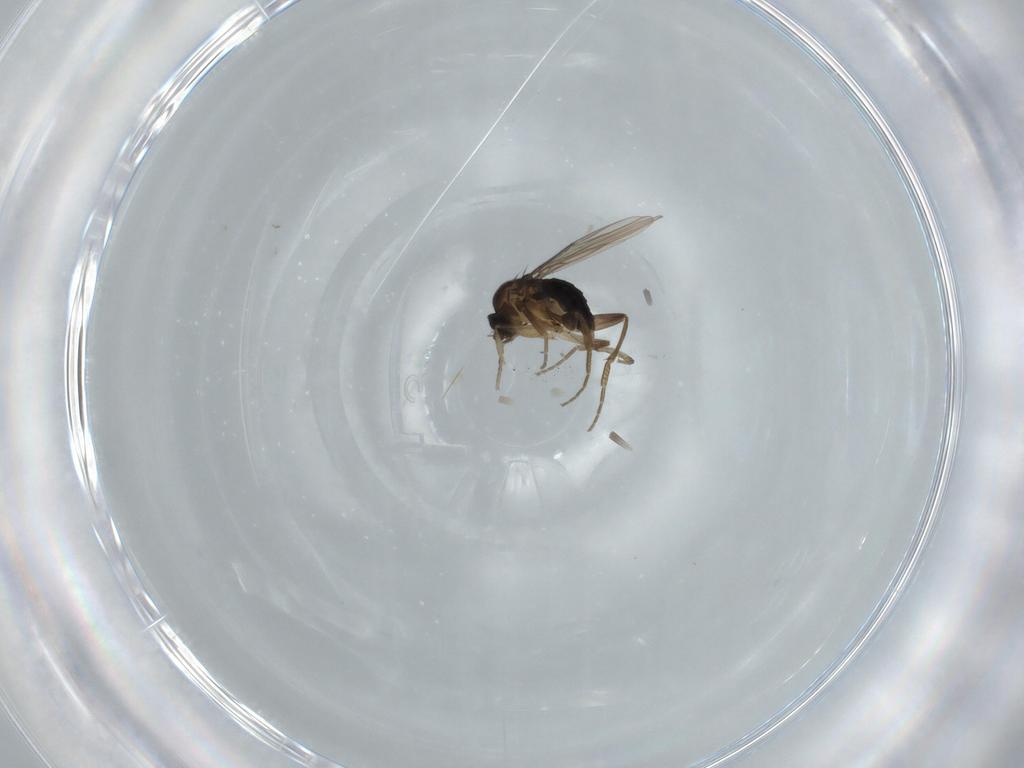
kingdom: Animalia
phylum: Arthropoda
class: Insecta
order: Diptera
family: Phoridae
